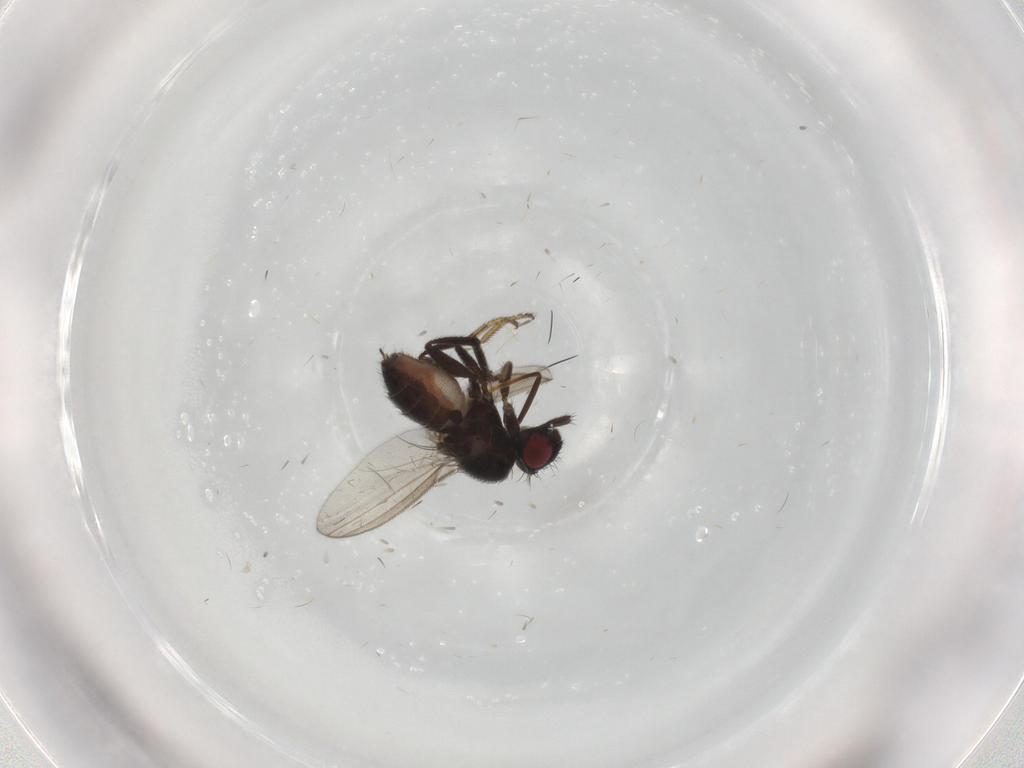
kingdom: Animalia
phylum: Arthropoda
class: Insecta
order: Diptera
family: Milichiidae
